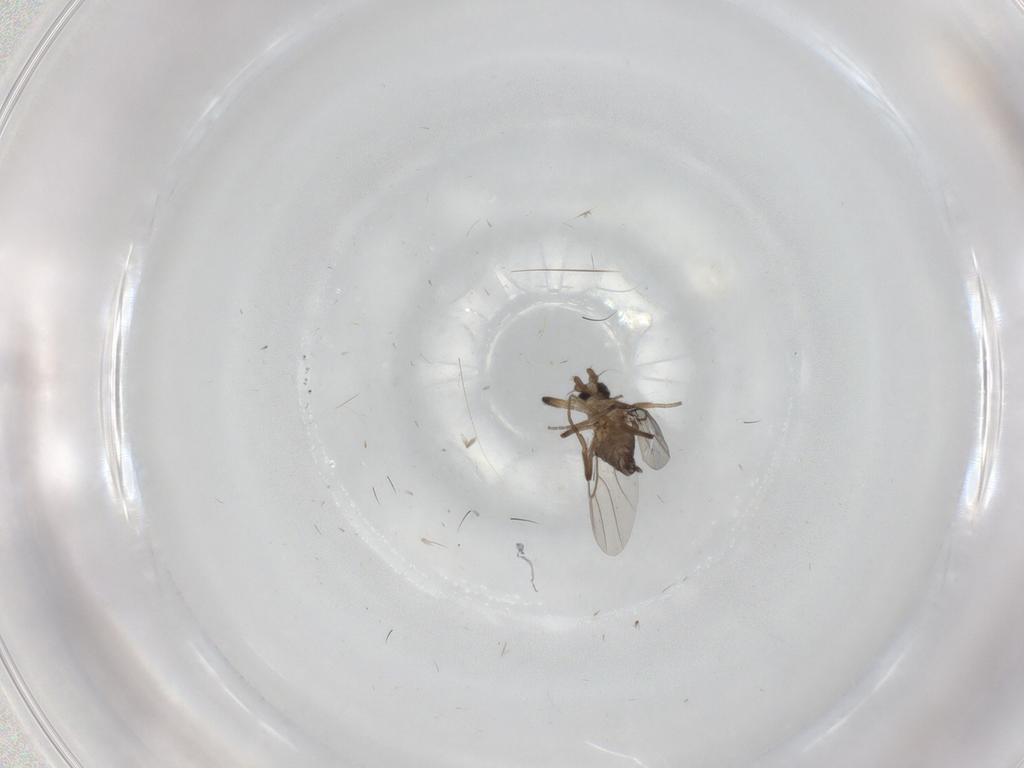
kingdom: Animalia
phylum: Arthropoda
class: Insecta
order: Diptera
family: Phoridae
